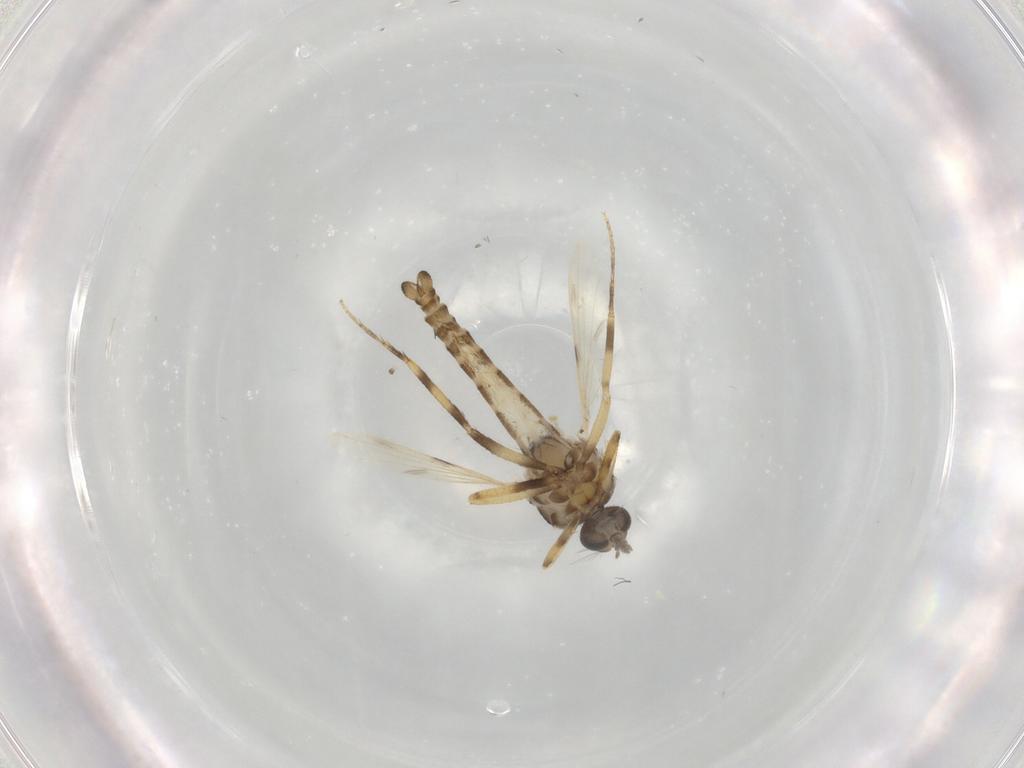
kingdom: Animalia
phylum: Arthropoda
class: Insecta
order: Diptera
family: Ceratopogonidae
